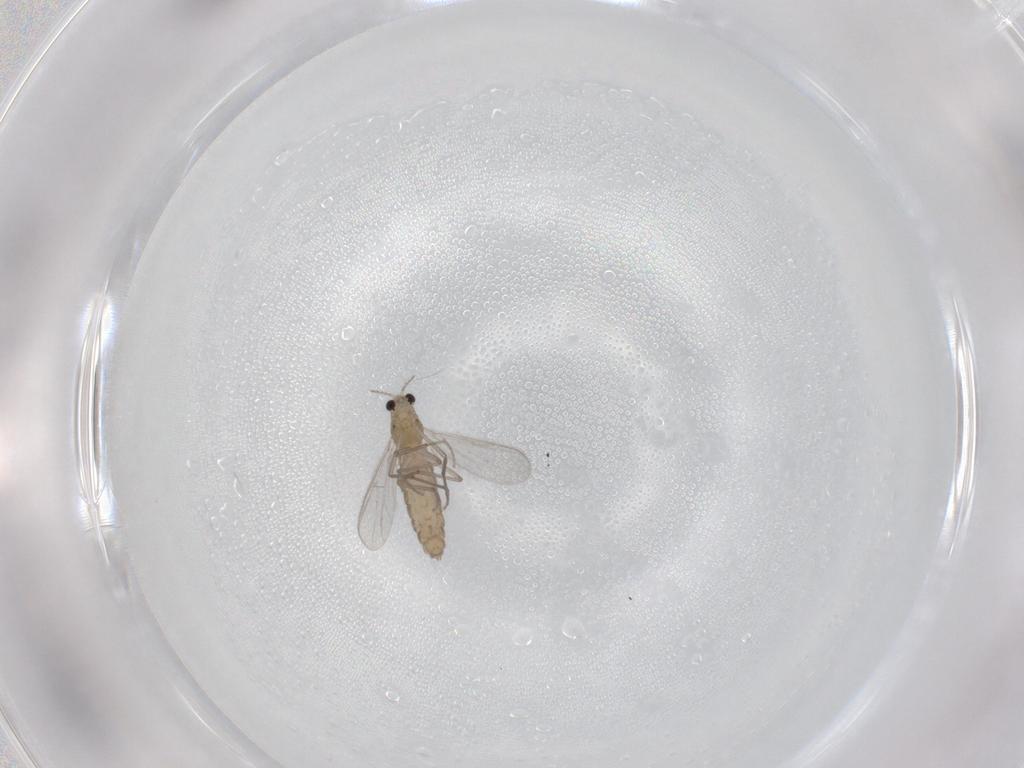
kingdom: Animalia
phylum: Arthropoda
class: Insecta
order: Diptera
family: Chironomidae
